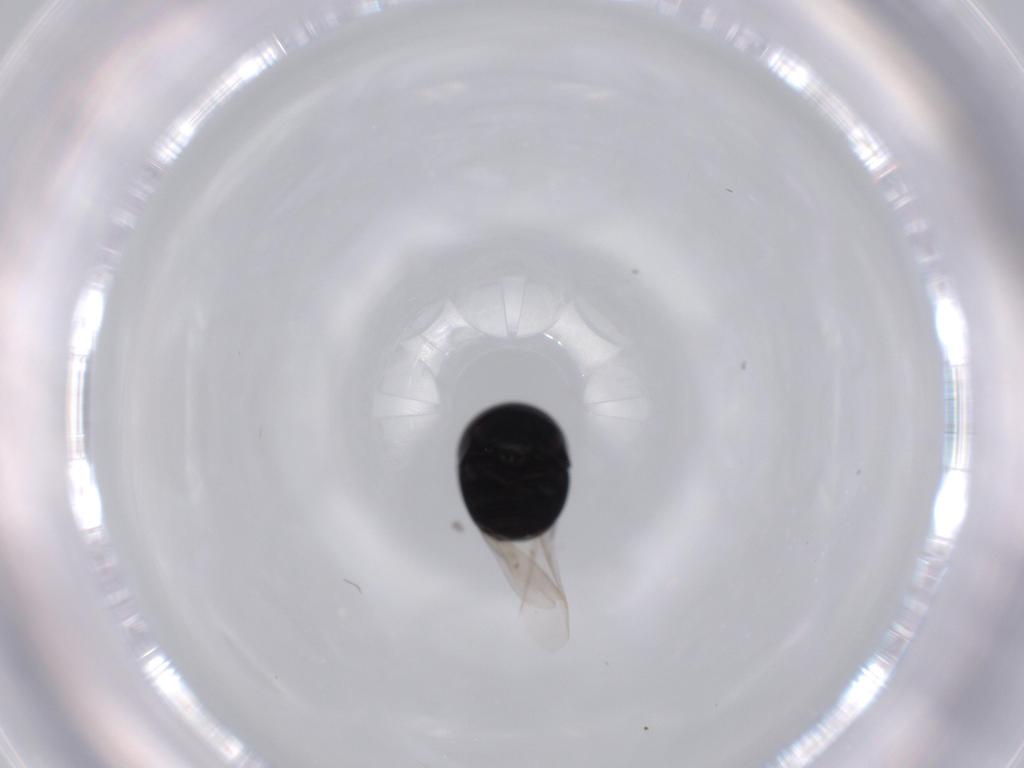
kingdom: Animalia
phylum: Arthropoda
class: Insecta
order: Coleoptera
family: Cybocephalidae
